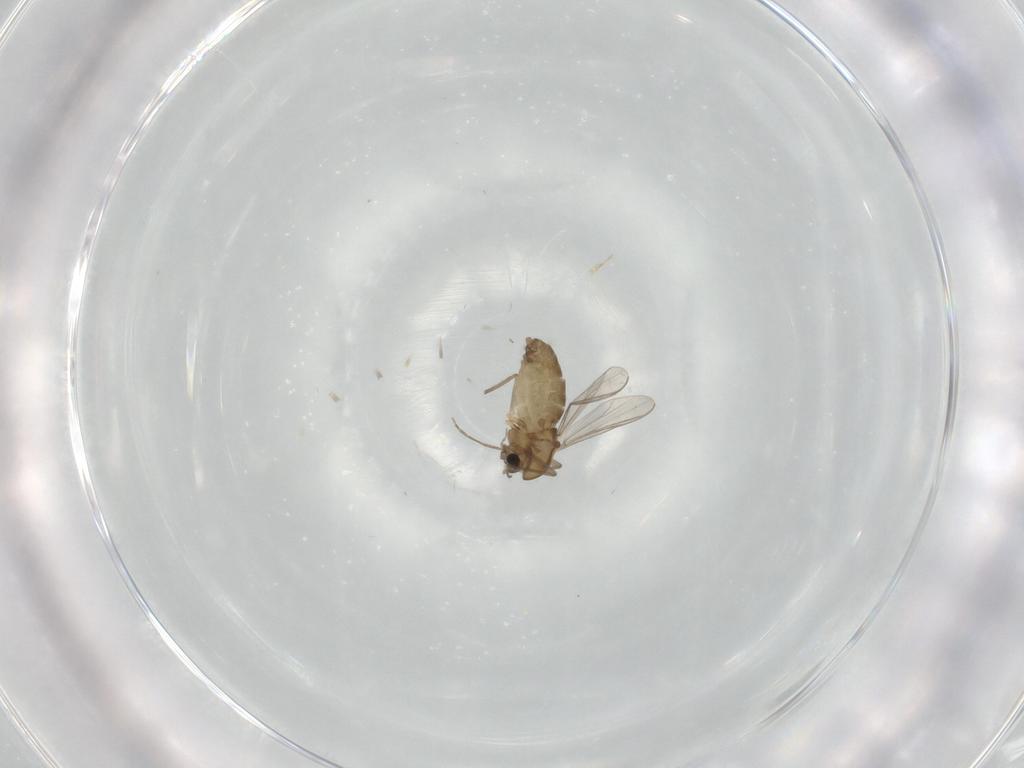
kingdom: Animalia
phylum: Arthropoda
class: Insecta
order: Diptera
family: Chironomidae
